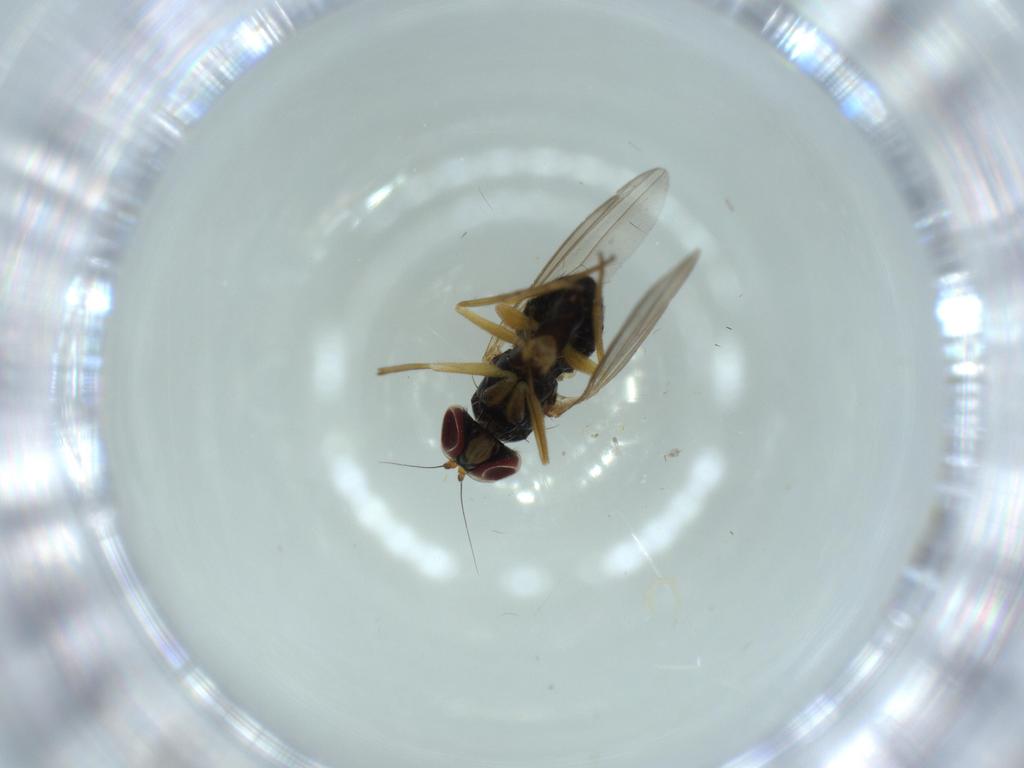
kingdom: Animalia
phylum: Arthropoda
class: Insecta
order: Diptera
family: Dolichopodidae
